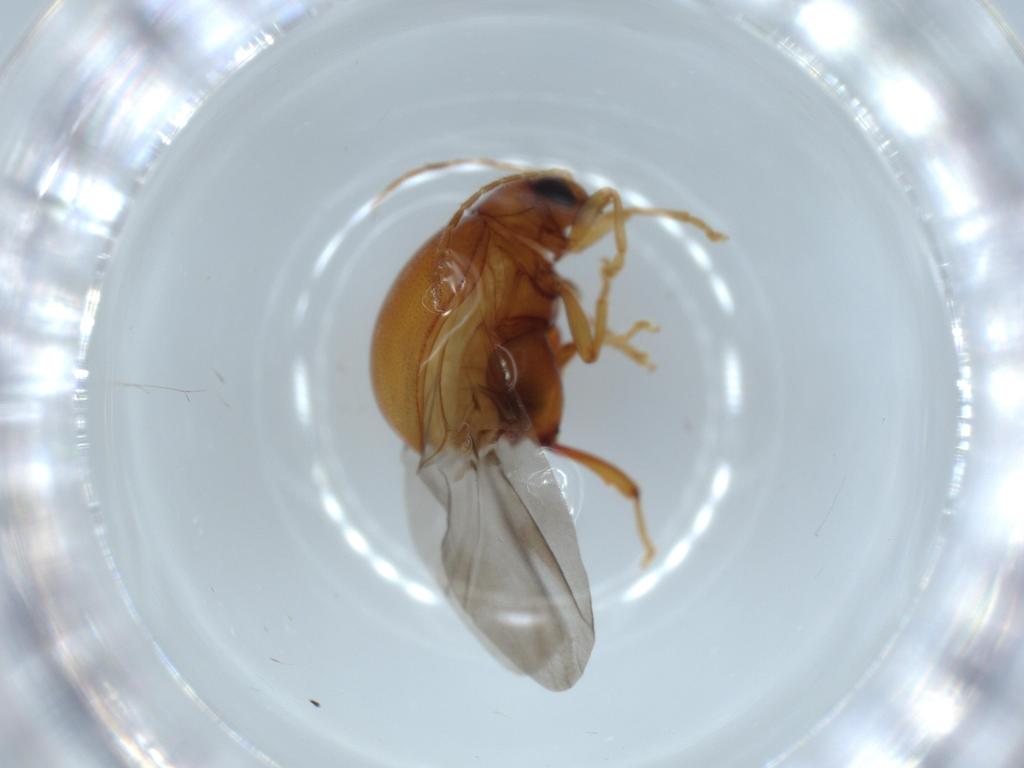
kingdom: Animalia
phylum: Arthropoda
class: Insecta
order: Coleoptera
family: Chrysomelidae
